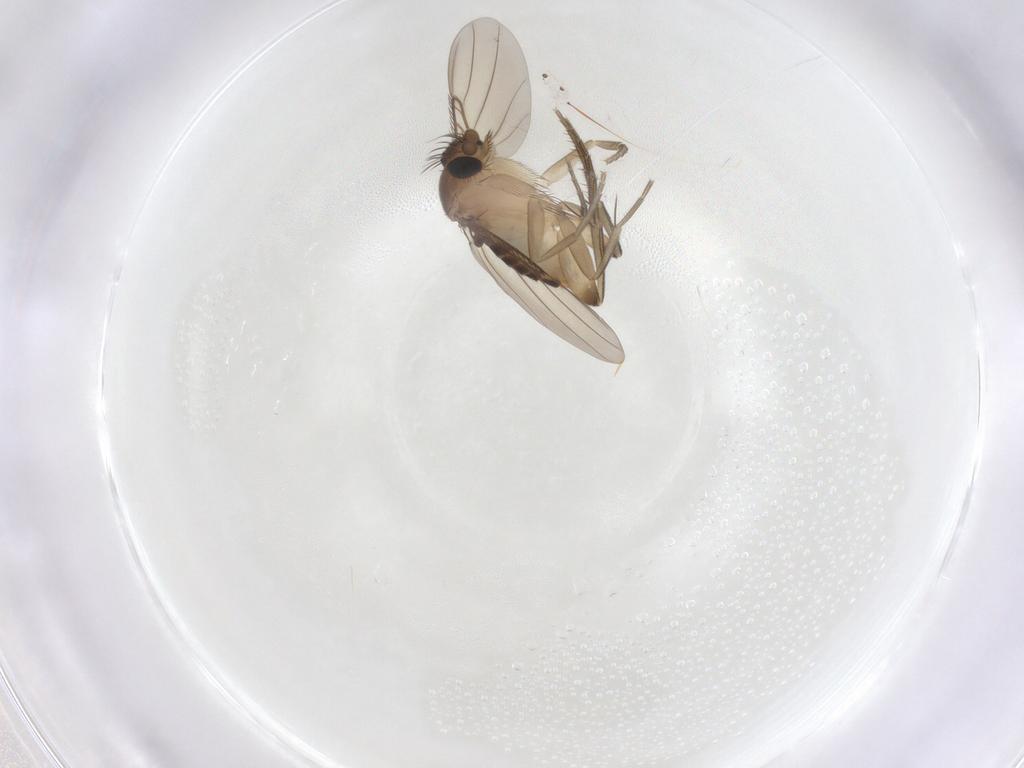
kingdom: Animalia
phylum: Arthropoda
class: Insecta
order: Diptera
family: Phoridae
